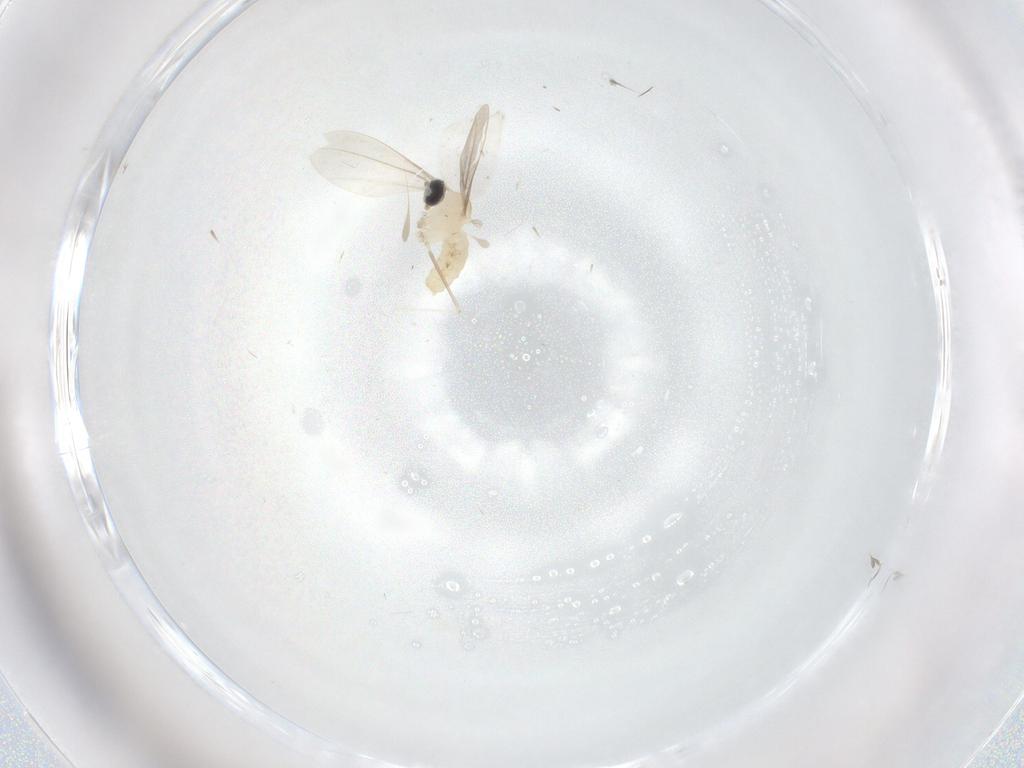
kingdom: Animalia
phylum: Arthropoda
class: Insecta
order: Diptera
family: Cecidomyiidae
